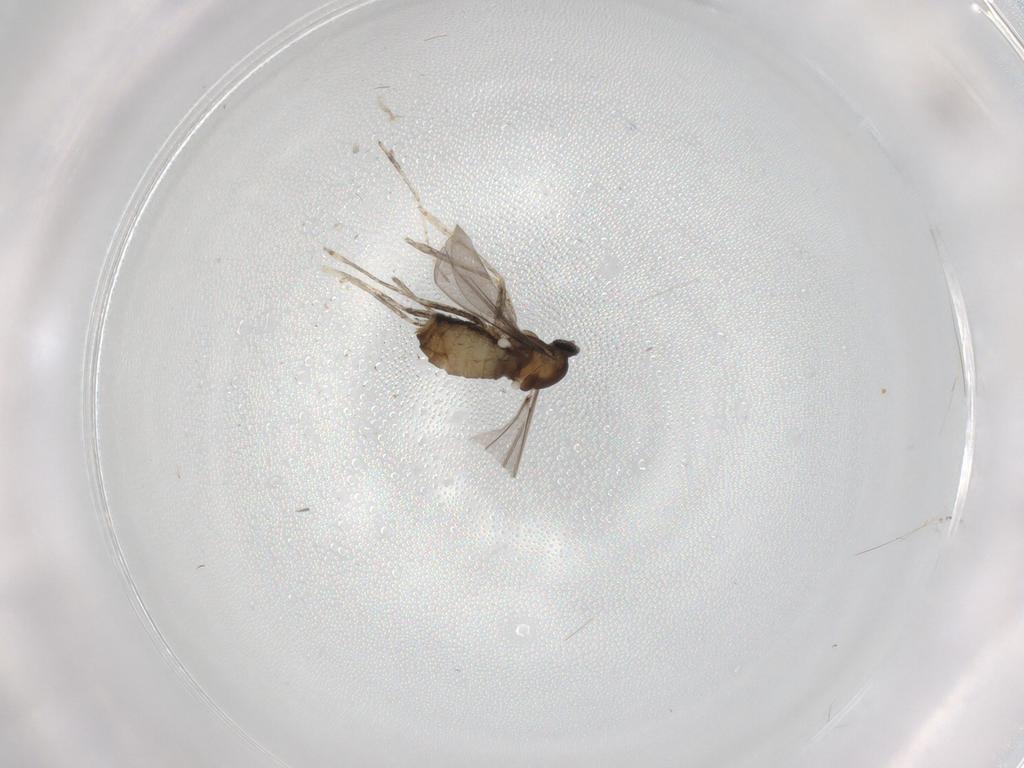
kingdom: Animalia
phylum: Arthropoda
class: Insecta
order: Diptera
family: Cecidomyiidae
